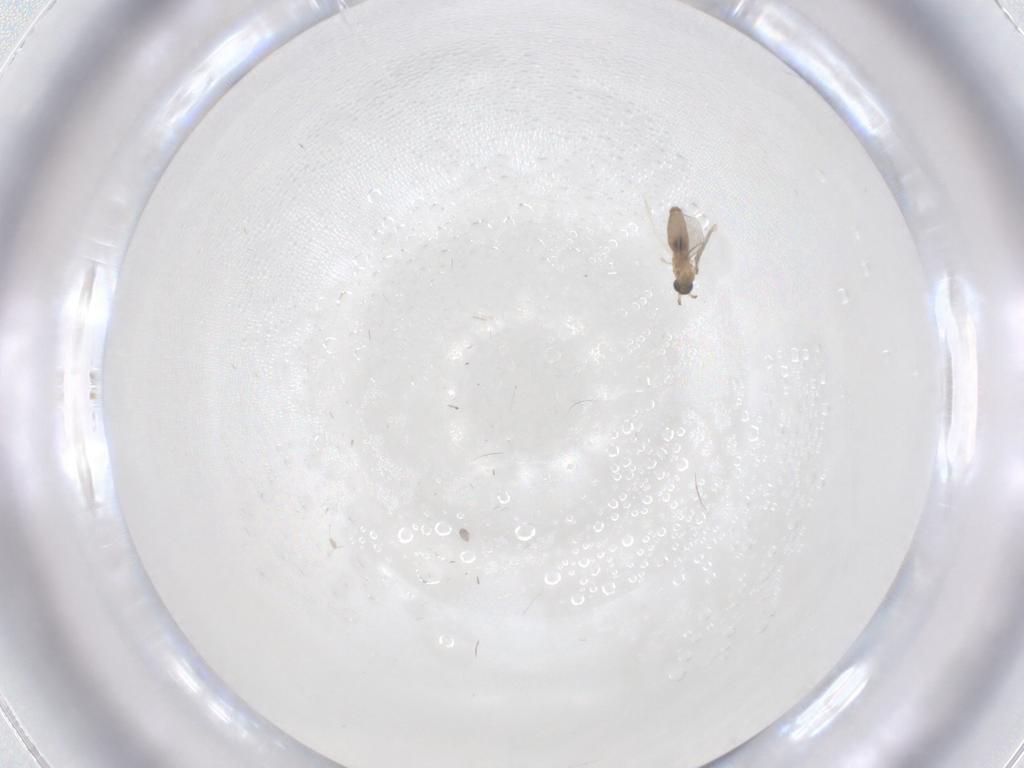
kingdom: Animalia
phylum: Arthropoda
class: Insecta
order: Diptera
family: Cecidomyiidae
